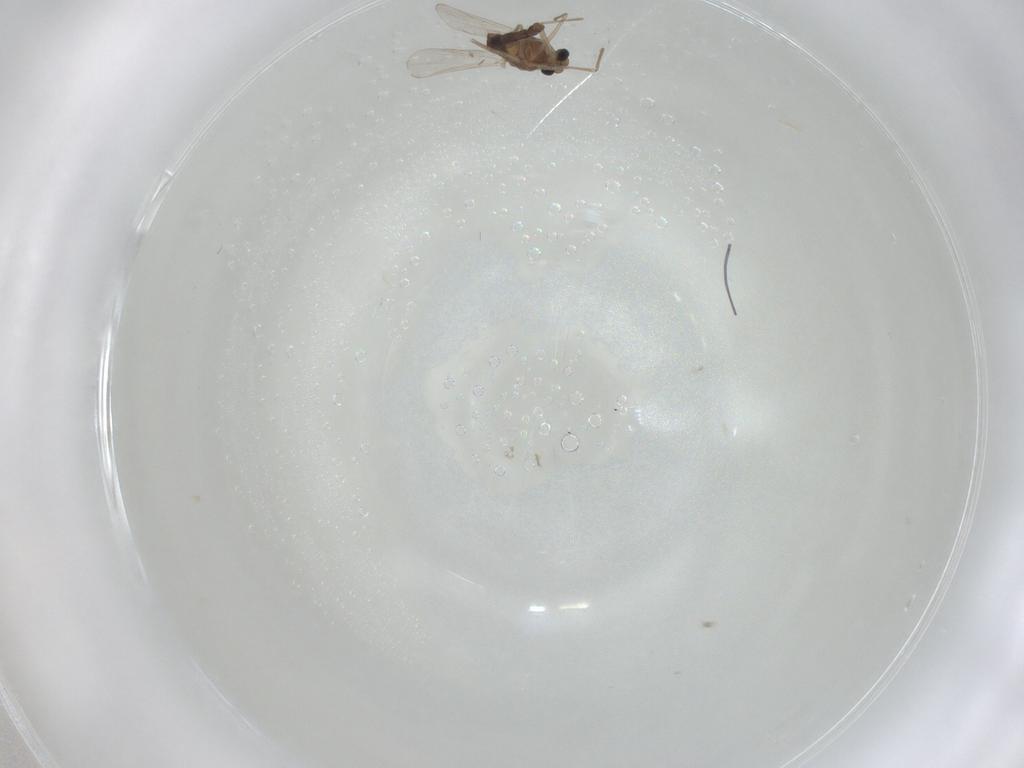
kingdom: Animalia
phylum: Arthropoda
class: Insecta
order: Diptera
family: Chironomidae
